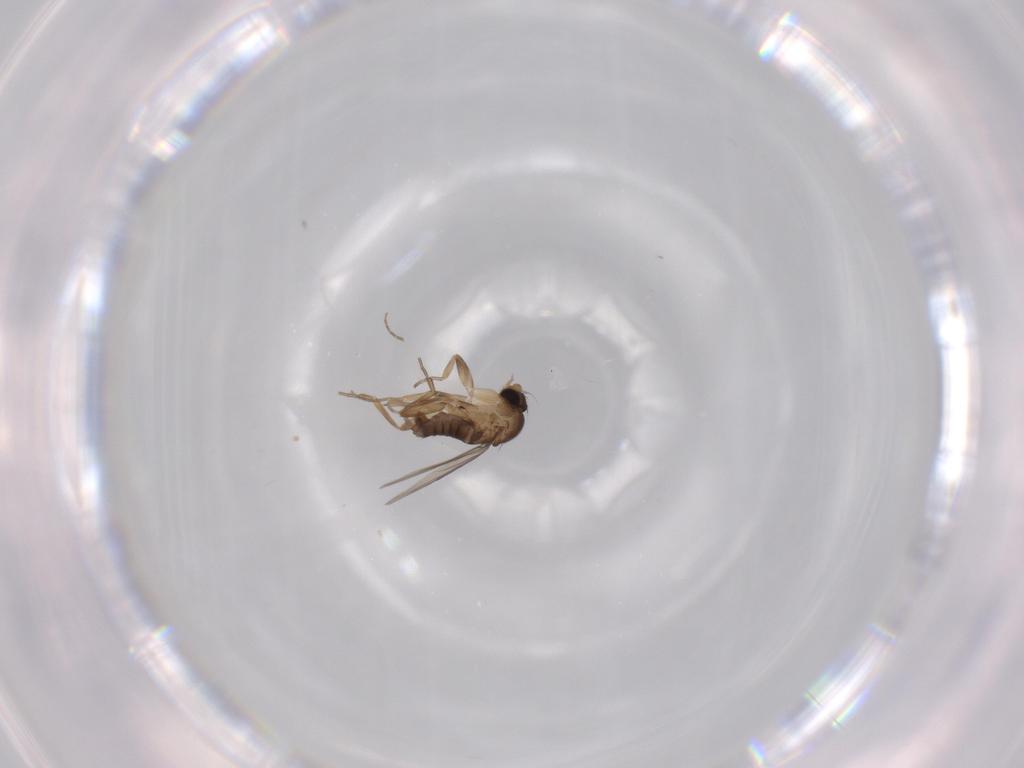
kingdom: Animalia
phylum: Arthropoda
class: Insecta
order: Diptera
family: Phoridae
